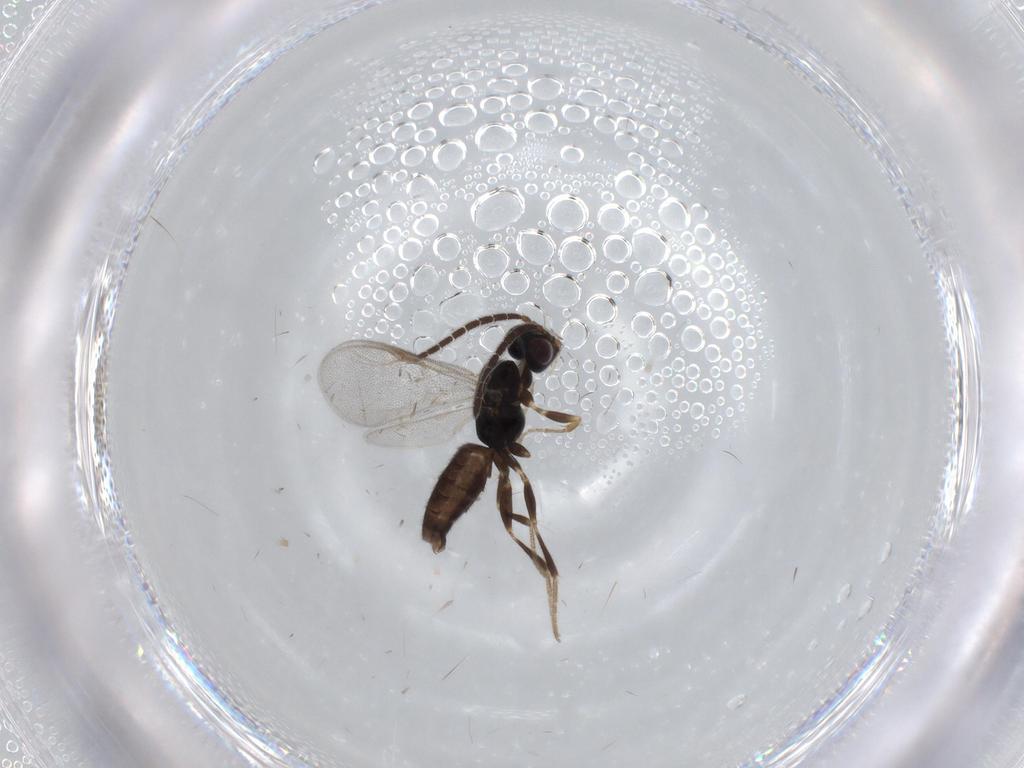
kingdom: Animalia
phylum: Arthropoda
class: Insecta
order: Hymenoptera
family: Dryinidae
